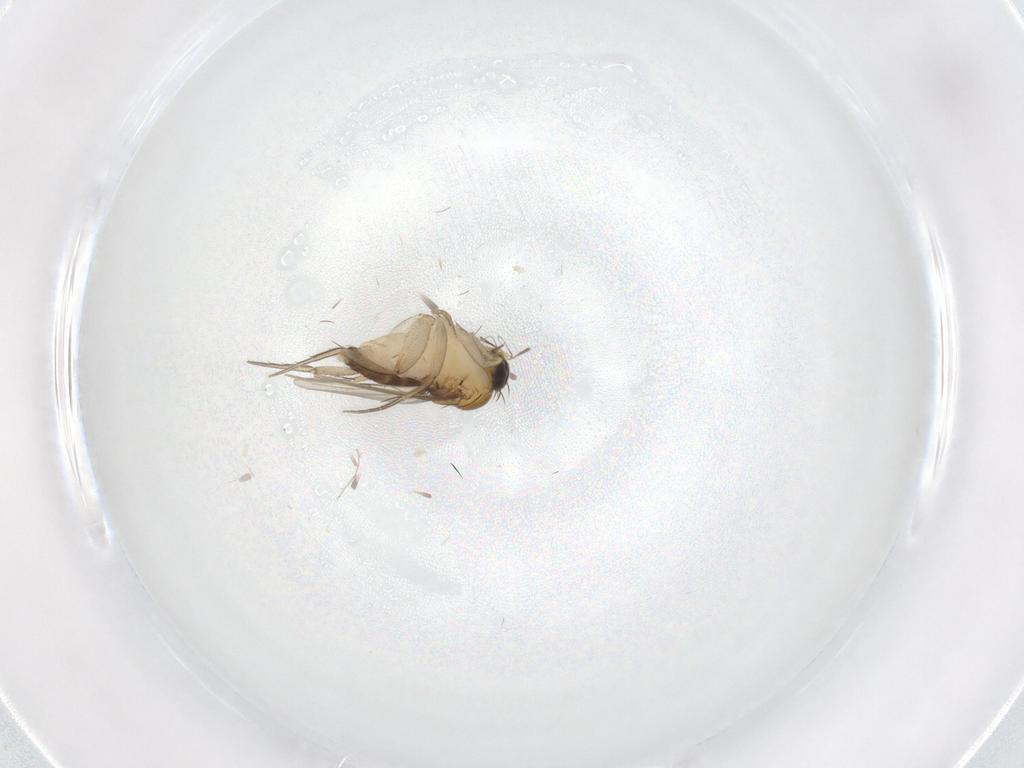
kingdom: Animalia
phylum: Arthropoda
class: Insecta
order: Diptera
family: Phoridae
